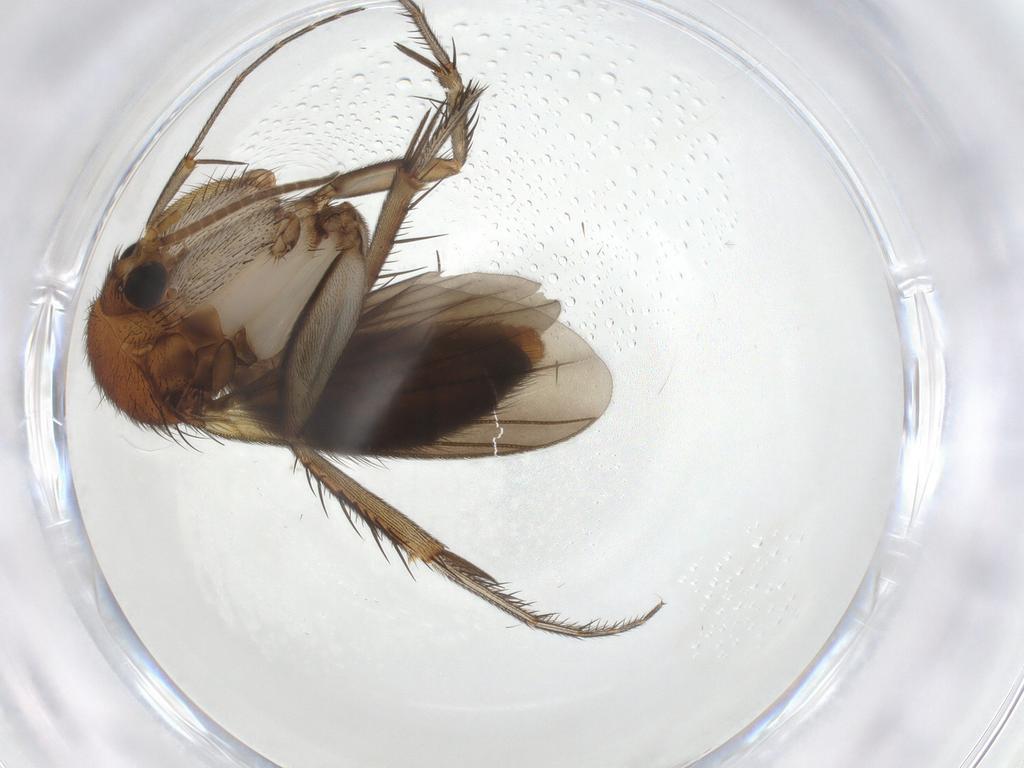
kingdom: Animalia
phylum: Arthropoda
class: Insecta
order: Diptera
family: Mycetophilidae
